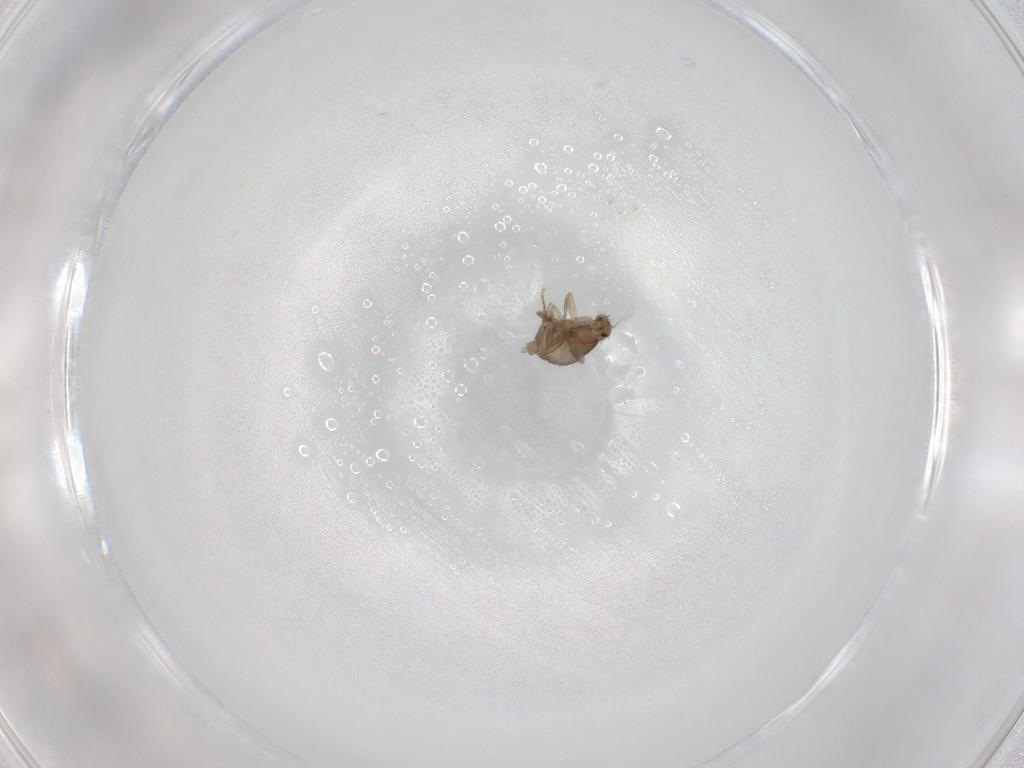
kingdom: Animalia
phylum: Arthropoda
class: Insecta
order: Diptera
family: Phoridae
